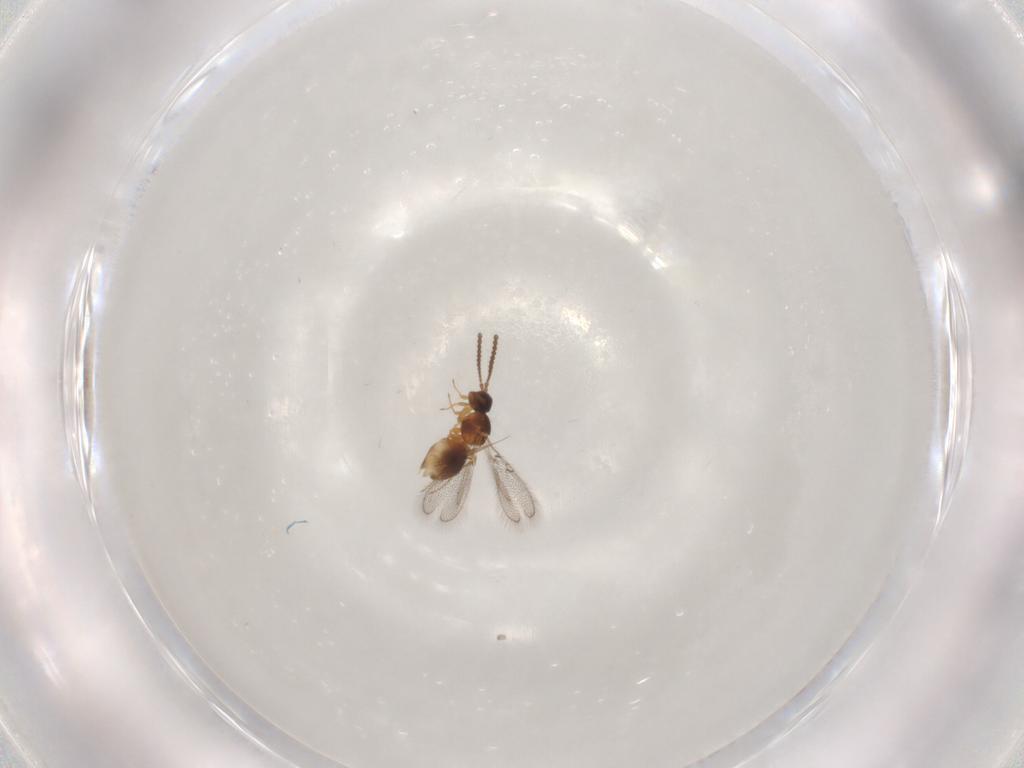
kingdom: Animalia
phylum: Arthropoda
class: Insecta
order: Hymenoptera
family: Figitidae
